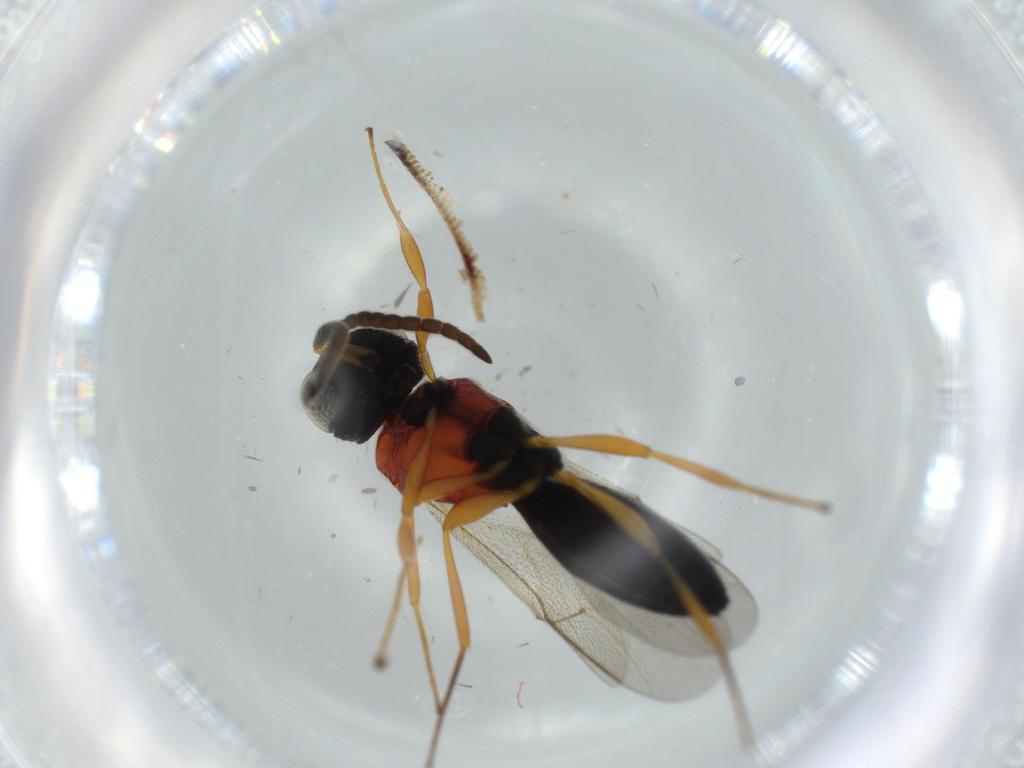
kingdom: Animalia
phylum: Arthropoda
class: Insecta
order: Hymenoptera
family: Scelionidae
